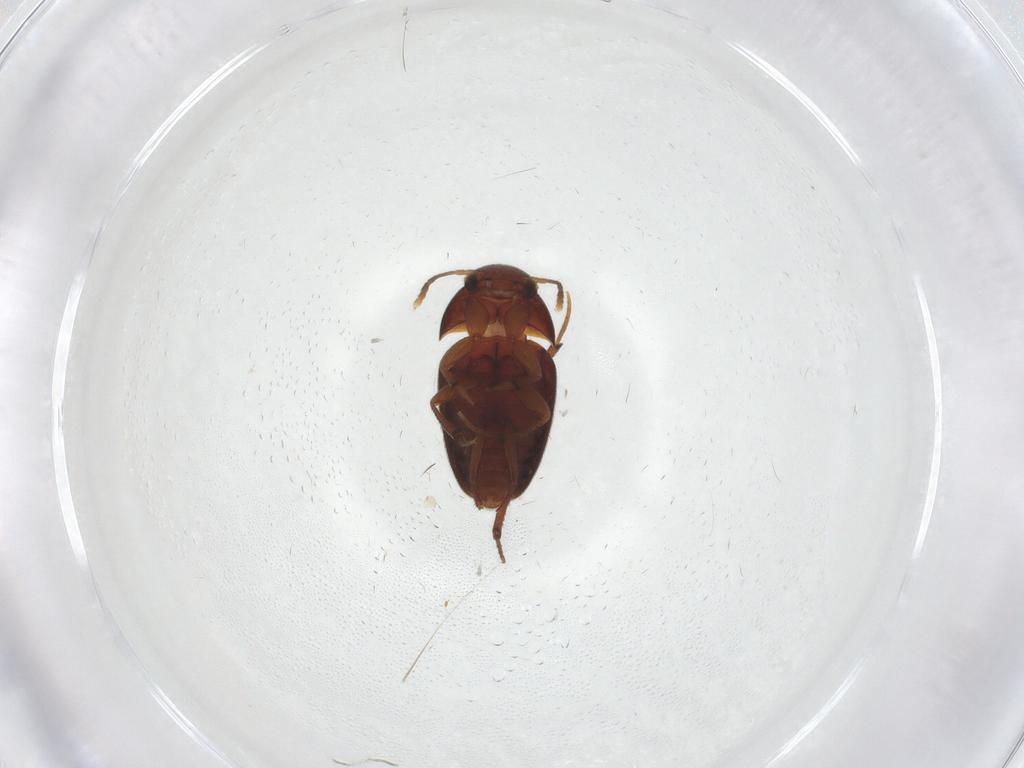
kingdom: Animalia
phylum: Arthropoda
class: Insecta
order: Coleoptera
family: Leiodidae
